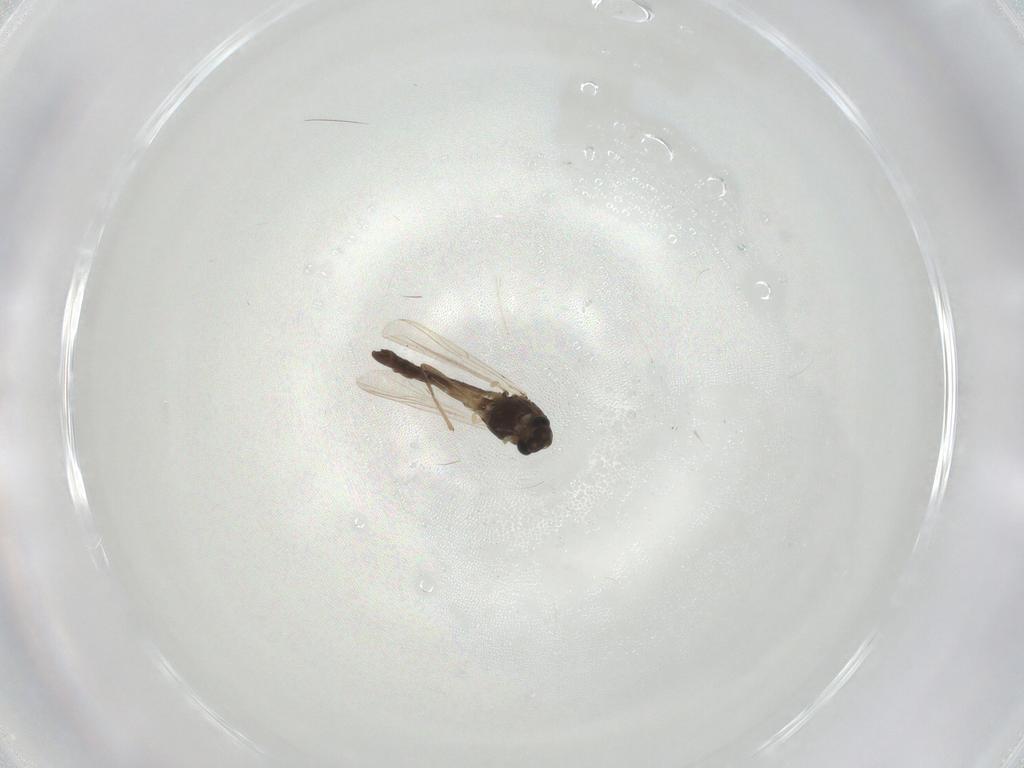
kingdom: Animalia
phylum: Arthropoda
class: Insecta
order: Diptera
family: Chironomidae
